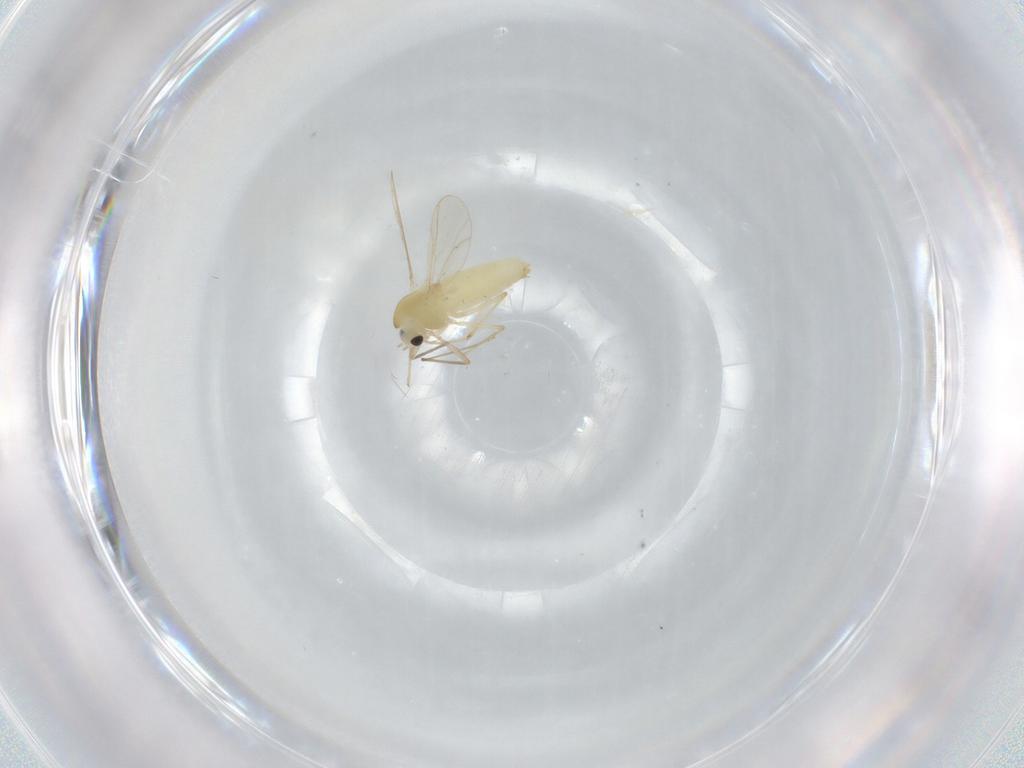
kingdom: Animalia
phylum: Arthropoda
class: Insecta
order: Diptera
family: Chironomidae
